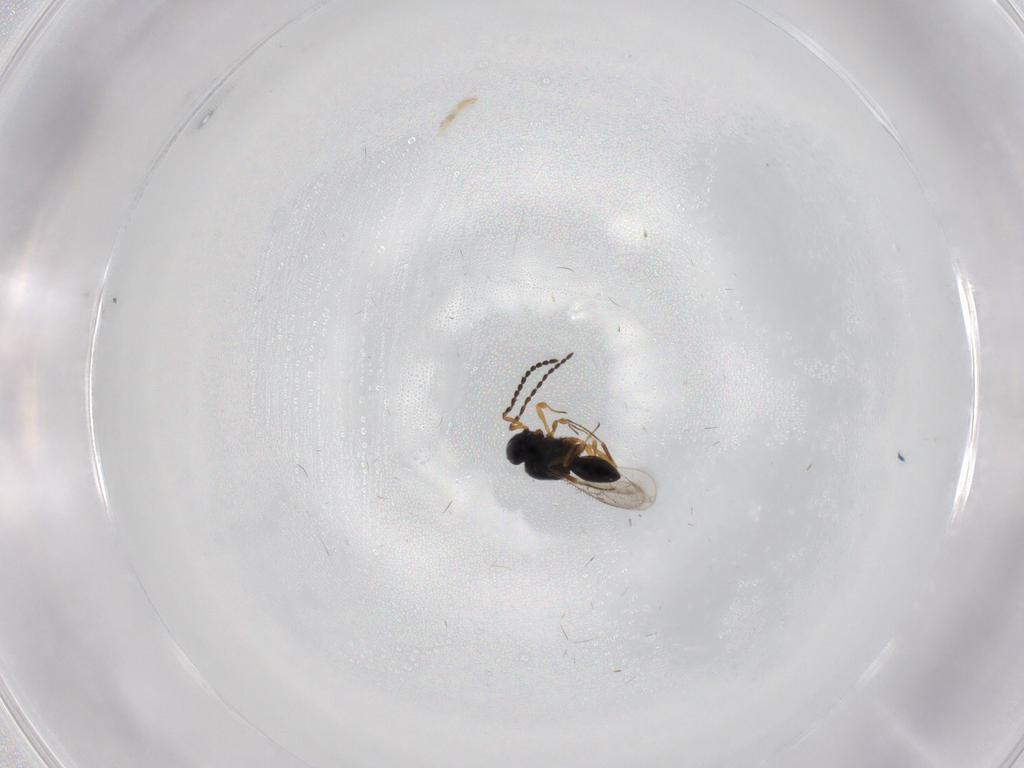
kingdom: Animalia
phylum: Arthropoda
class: Insecta
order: Hymenoptera
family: Scelionidae
